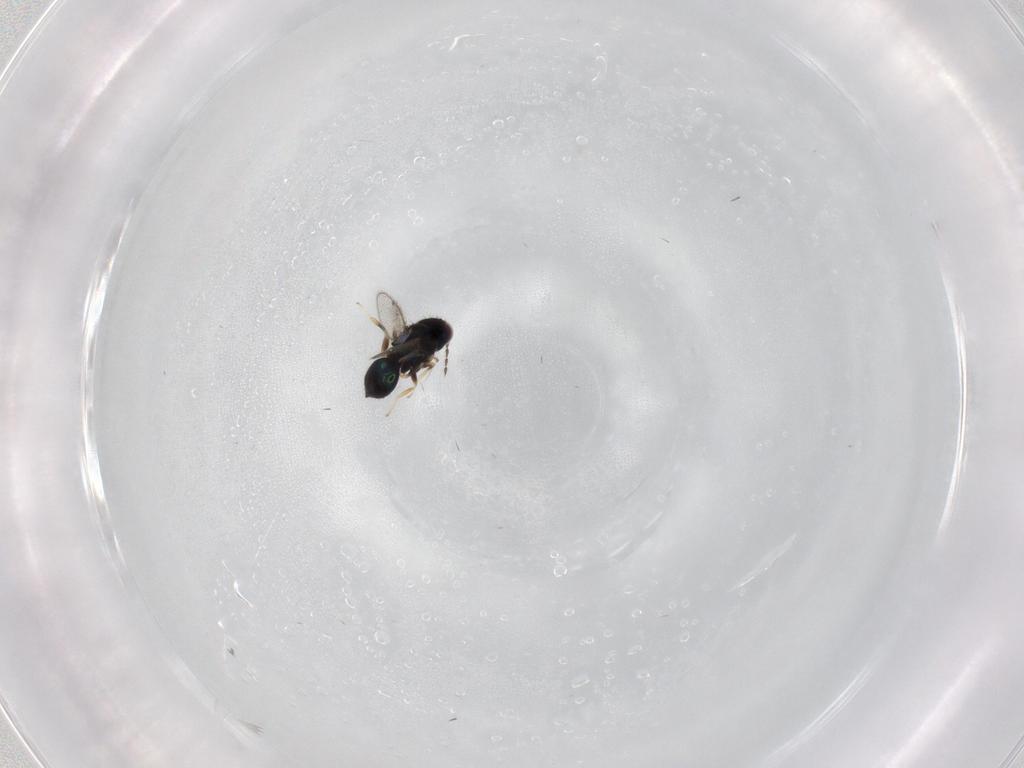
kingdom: Animalia
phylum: Arthropoda
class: Insecta
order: Hymenoptera
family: Eulophidae
